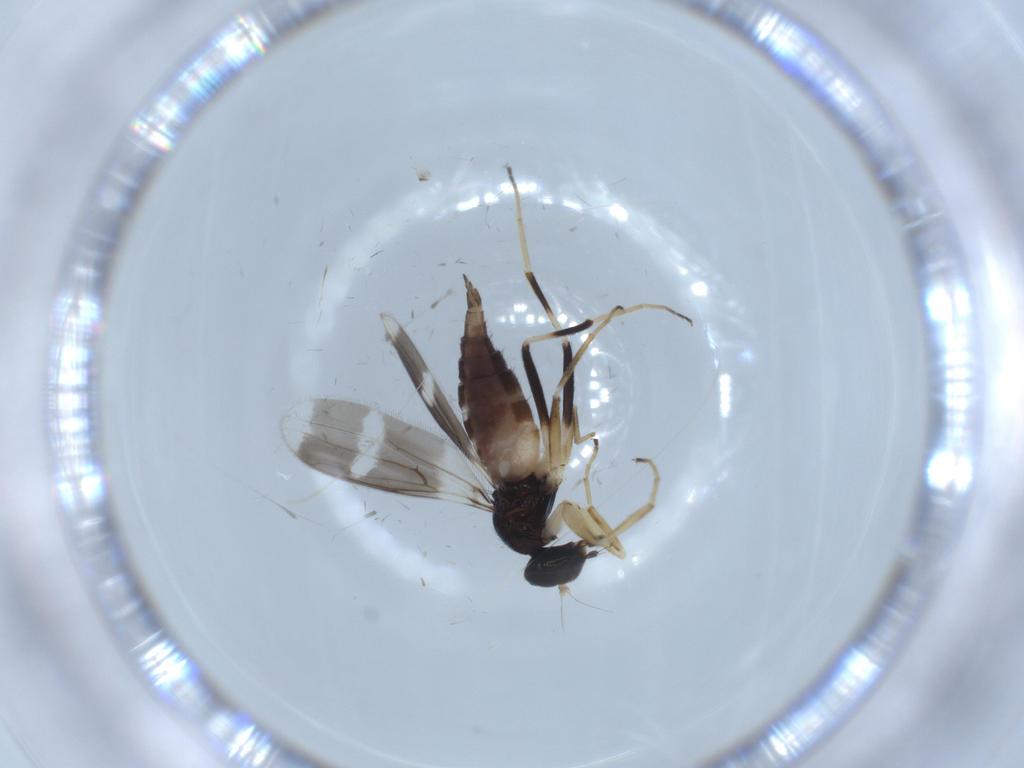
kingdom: Animalia
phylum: Arthropoda
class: Insecta
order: Diptera
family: Hybotidae
